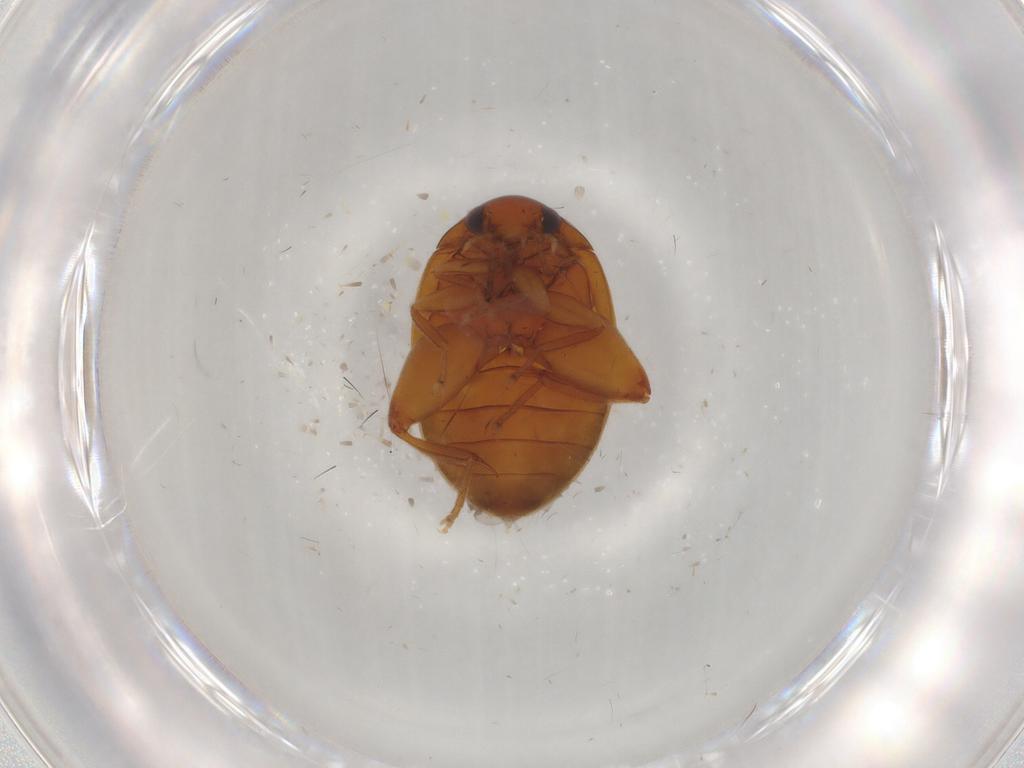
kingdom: Animalia
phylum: Arthropoda
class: Insecta
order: Coleoptera
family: Scirtidae
